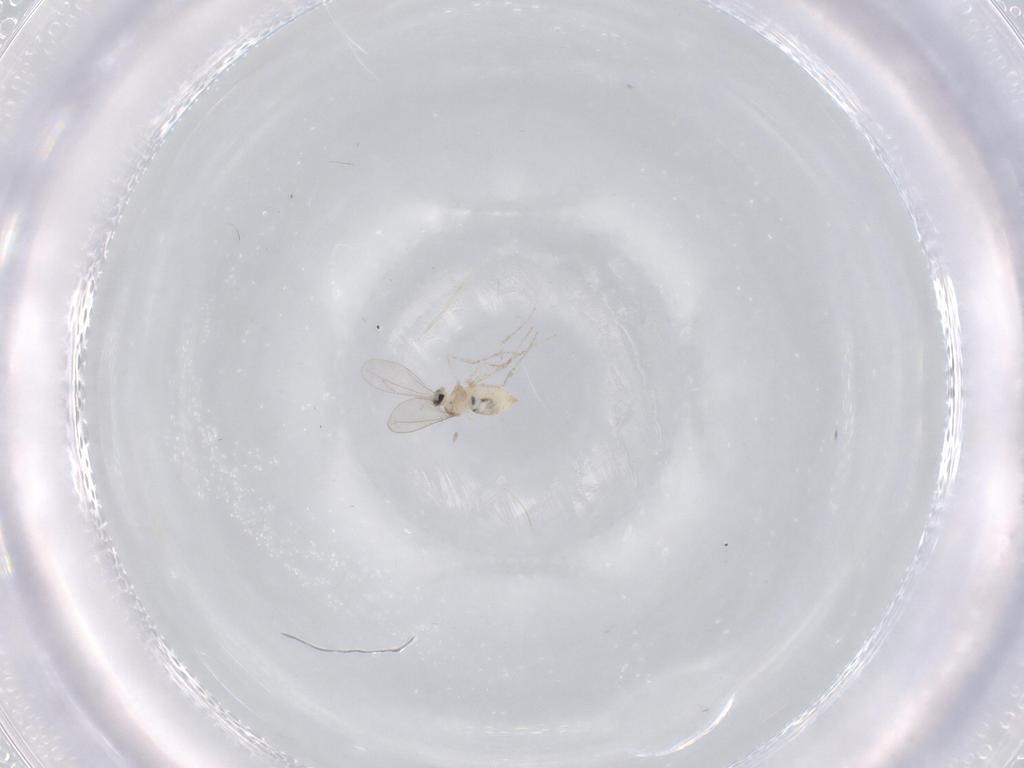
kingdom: Animalia
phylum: Arthropoda
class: Insecta
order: Diptera
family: Cecidomyiidae
